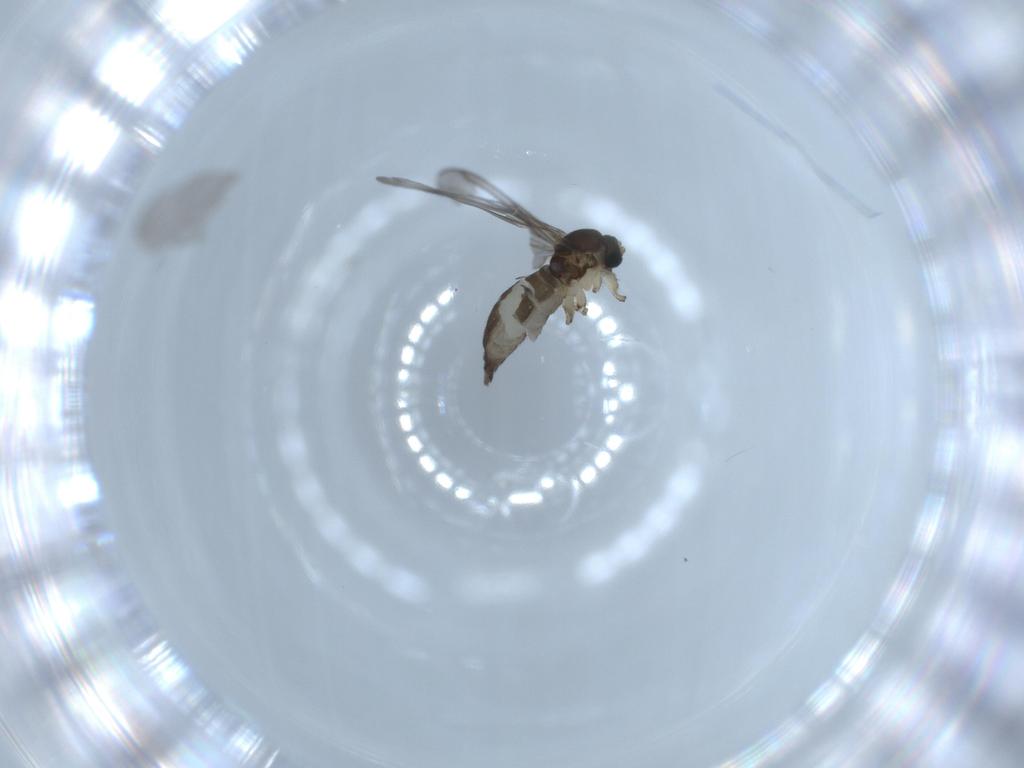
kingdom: Animalia
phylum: Arthropoda
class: Insecta
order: Diptera
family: Sciaridae
